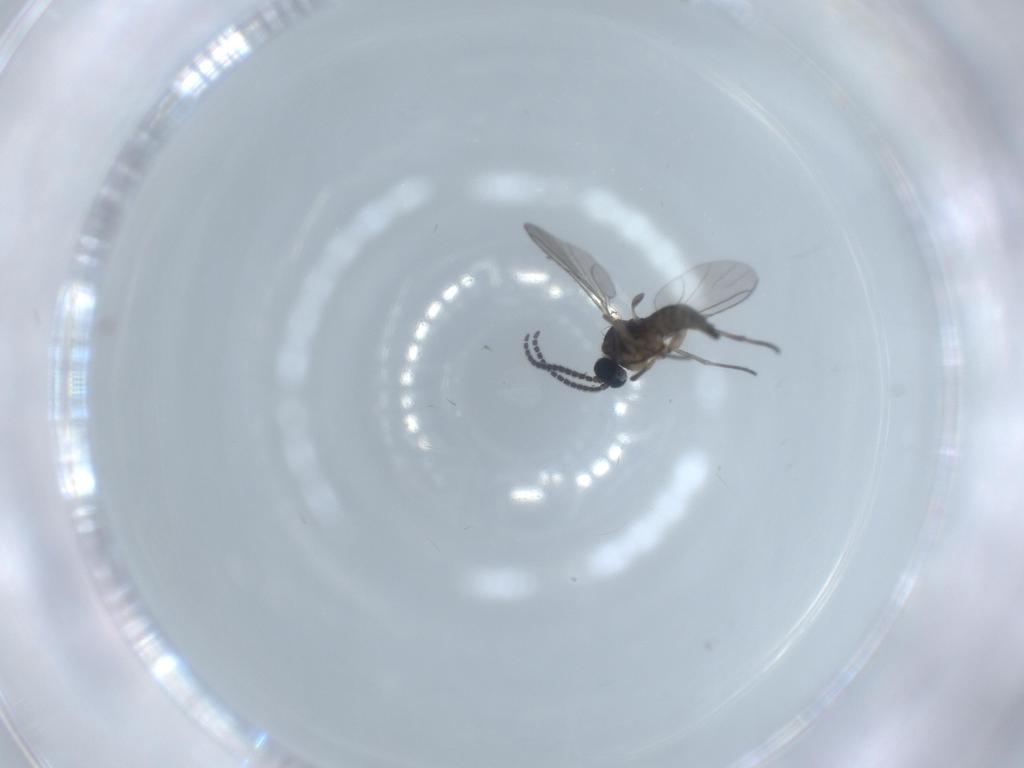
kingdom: Animalia
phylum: Arthropoda
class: Insecta
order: Diptera
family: Sciaridae
